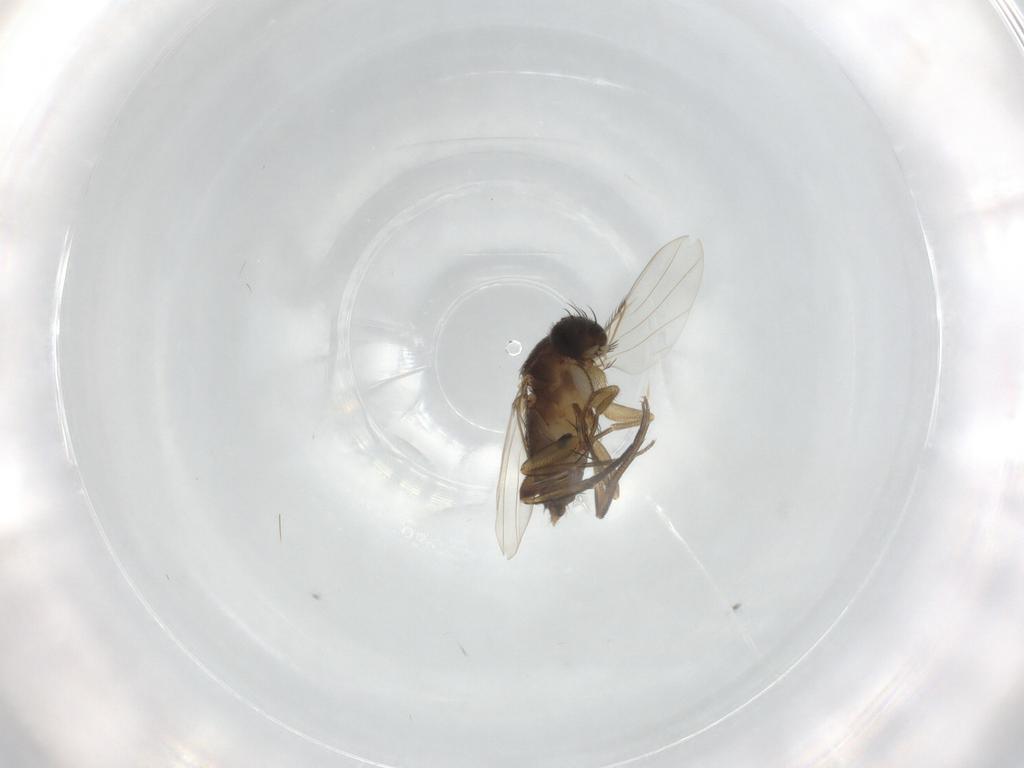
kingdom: Animalia
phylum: Arthropoda
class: Insecta
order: Diptera
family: Phoridae
